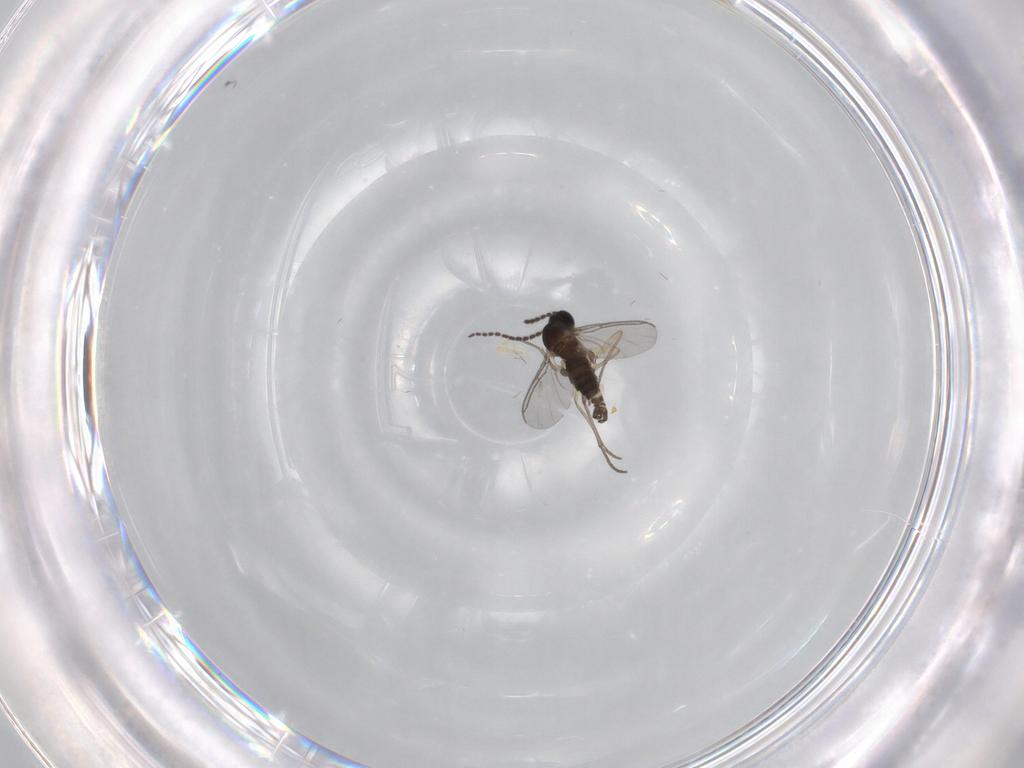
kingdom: Animalia
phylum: Arthropoda
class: Insecta
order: Diptera
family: Sciaridae
